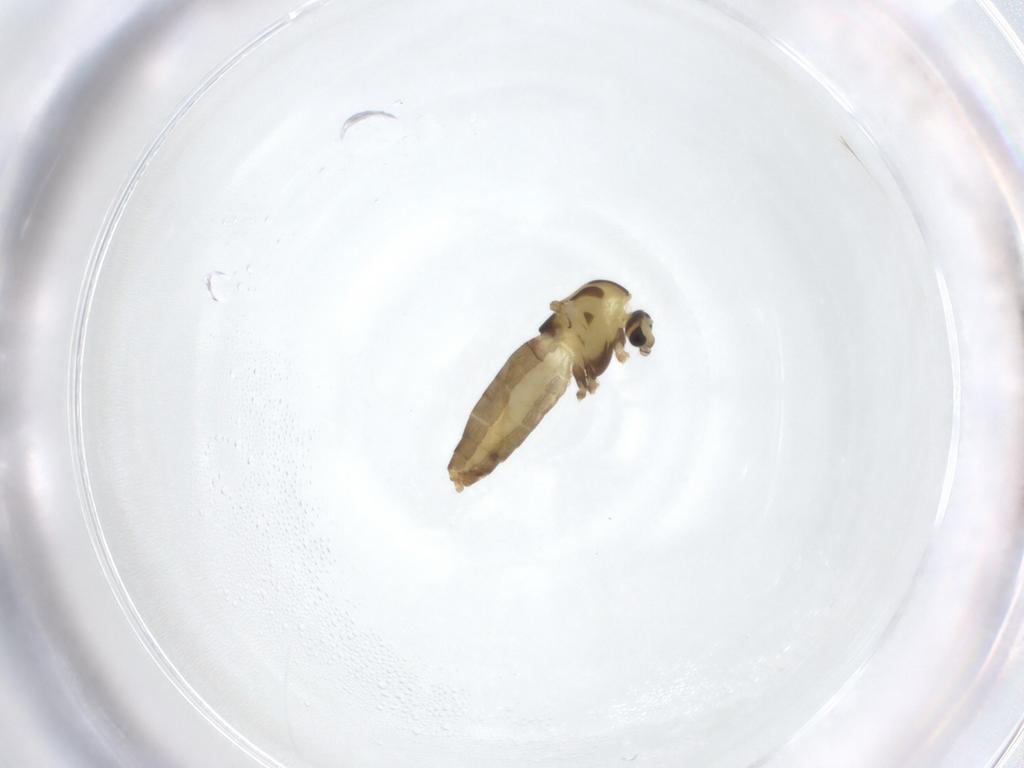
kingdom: Animalia
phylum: Arthropoda
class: Insecta
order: Diptera
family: Chironomidae
